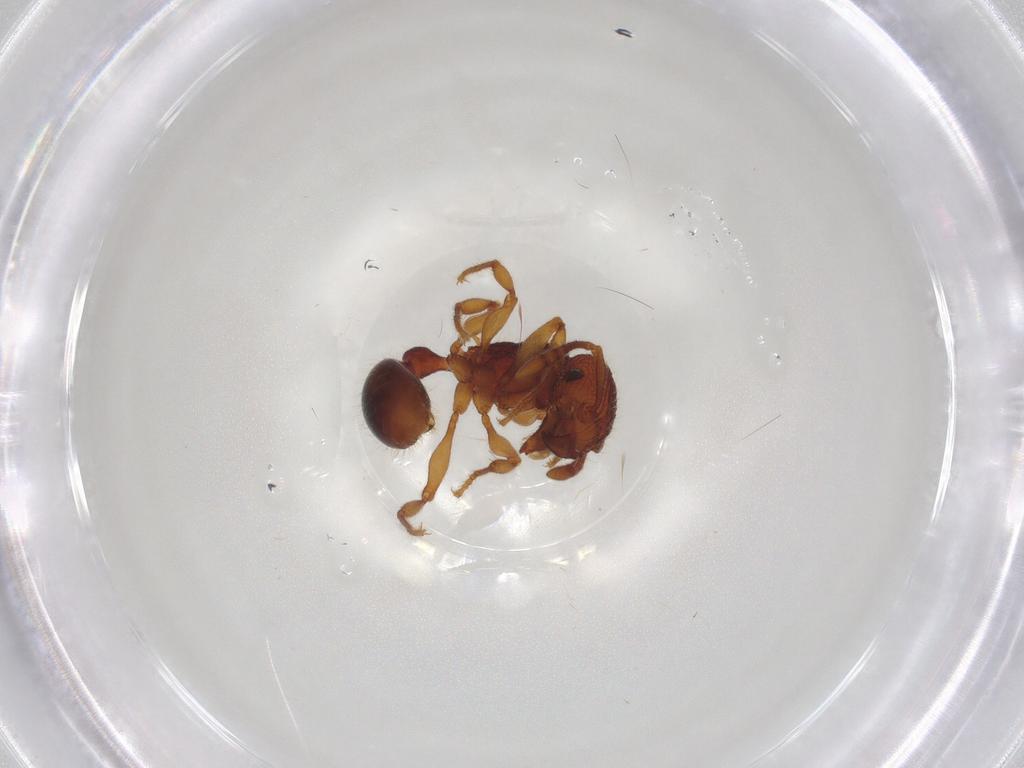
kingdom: Animalia
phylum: Arthropoda
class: Insecta
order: Hymenoptera
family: Formicidae
